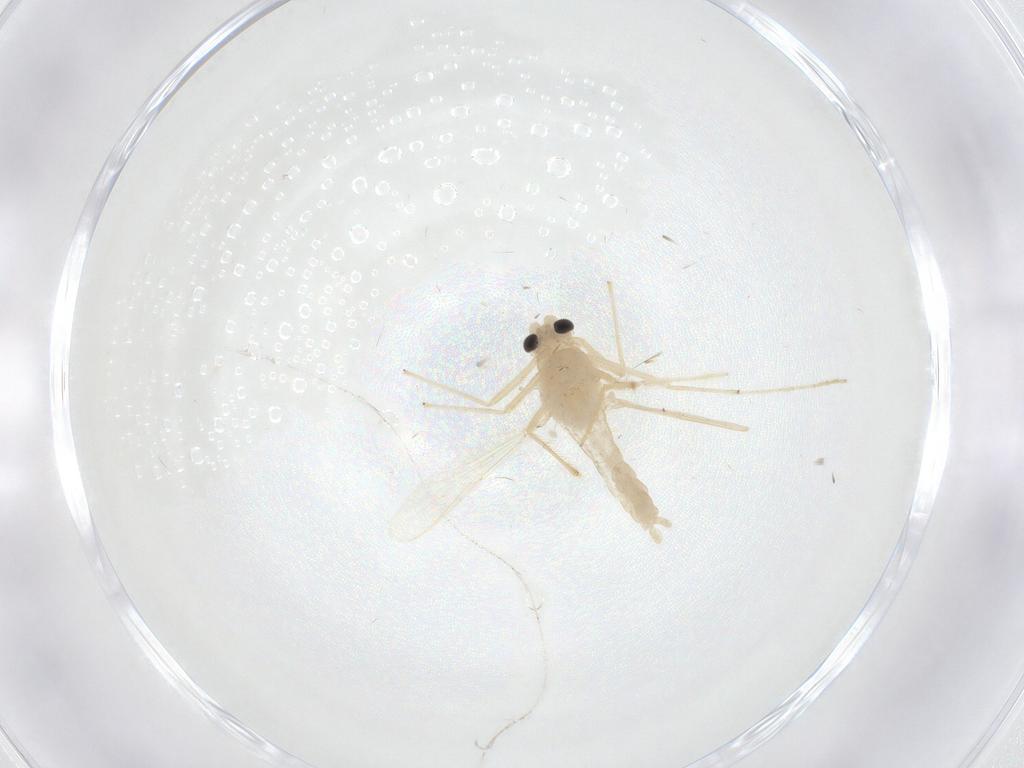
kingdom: Animalia
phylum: Arthropoda
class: Insecta
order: Diptera
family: Chironomidae
